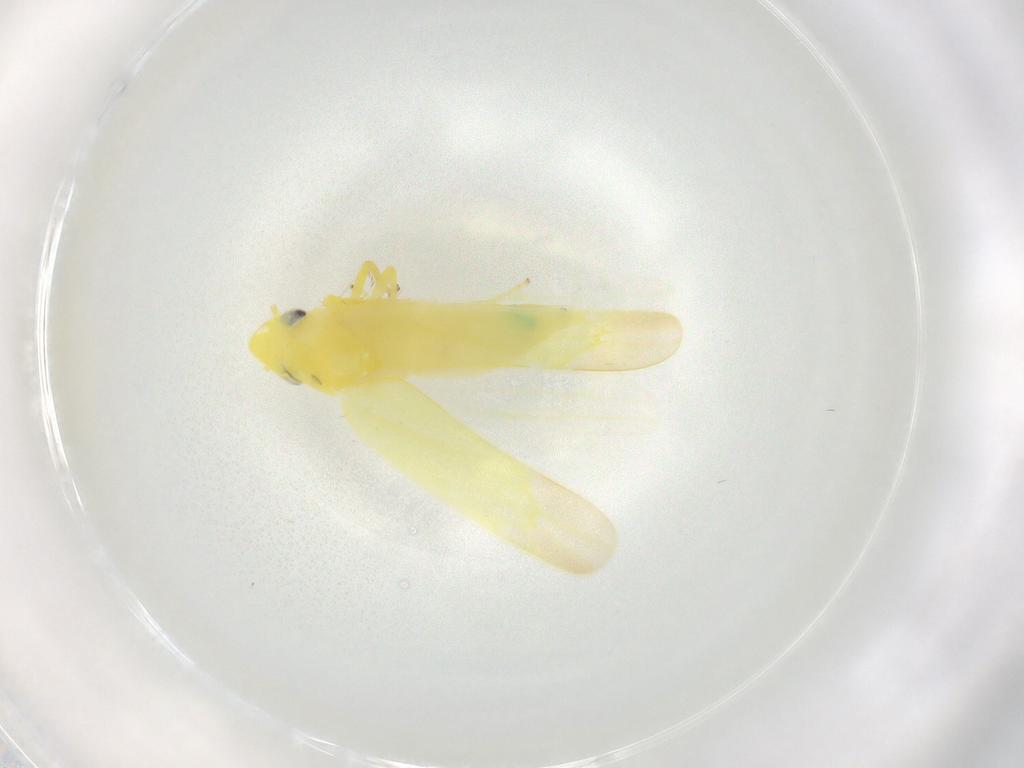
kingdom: Animalia
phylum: Arthropoda
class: Insecta
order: Hemiptera
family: Cicadellidae
